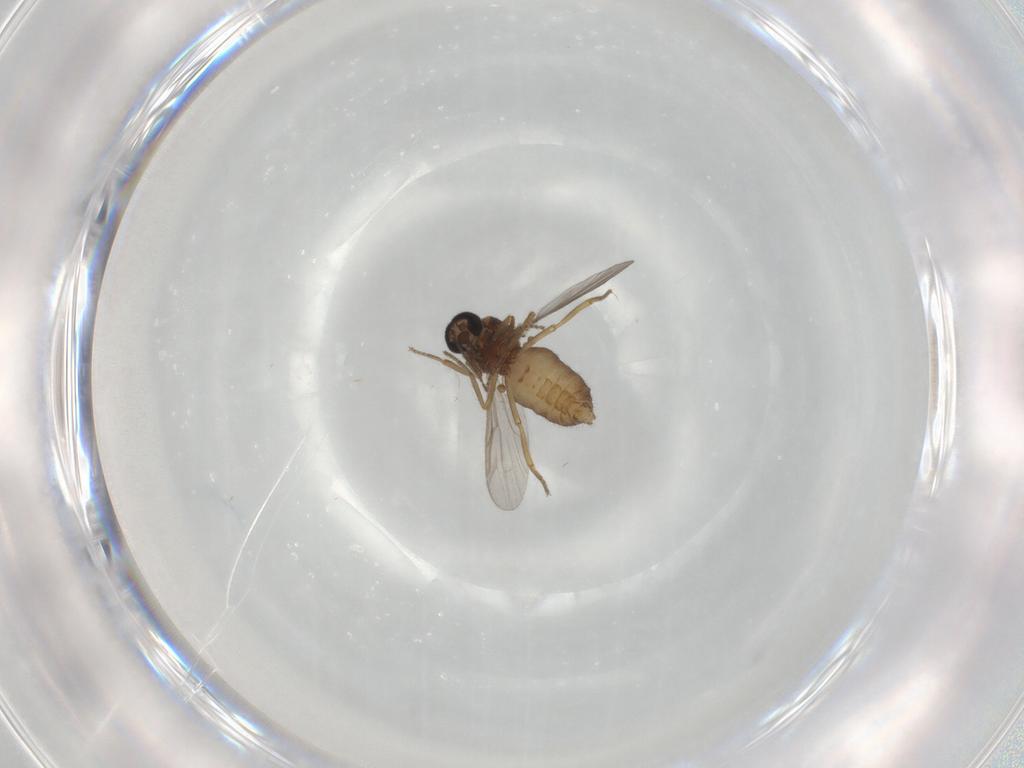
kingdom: Animalia
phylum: Arthropoda
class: Insecta
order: Diptera
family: Ceratopogonidae
